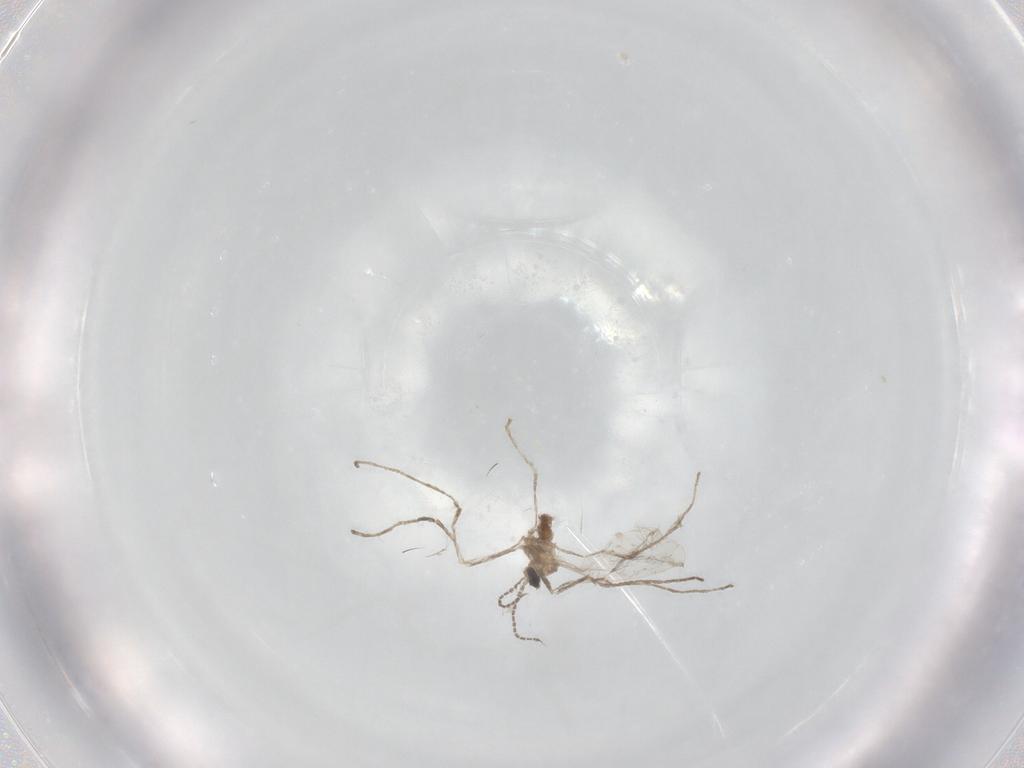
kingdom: Animalia
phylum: Arthropoda
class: Insecta
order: Diptera
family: Cecidomyiidae
